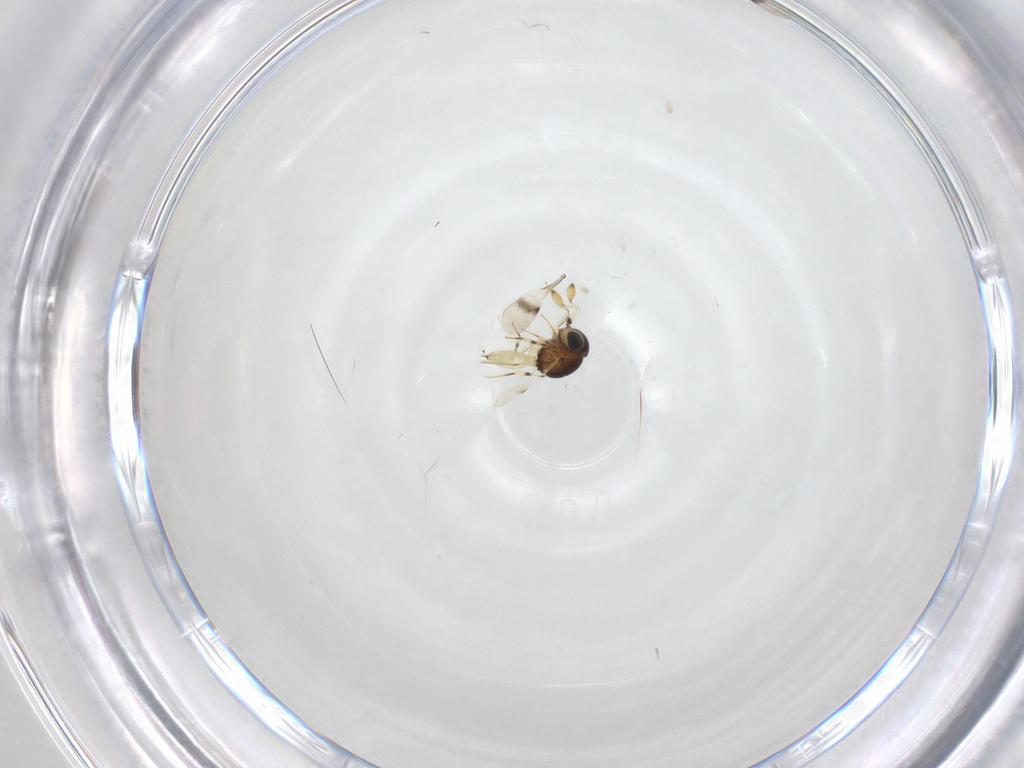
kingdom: Animalia
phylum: Arthropoda
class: Insecta
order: Hymenoptera
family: Scelionidae
